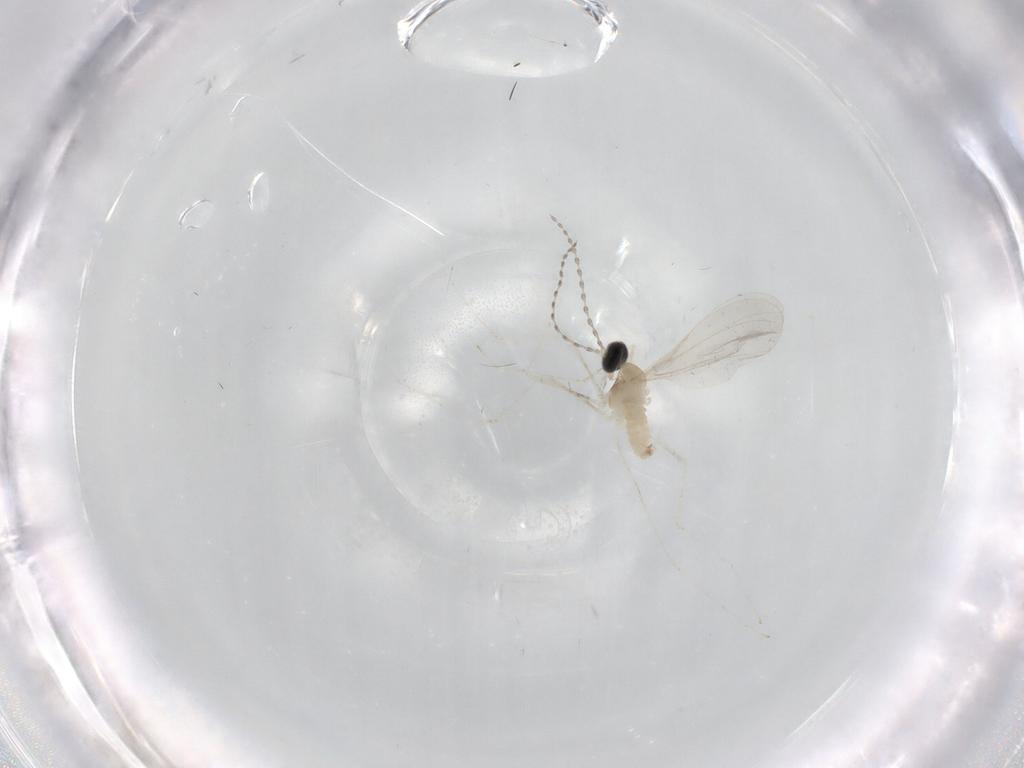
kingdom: Animalia
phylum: Arthropoda
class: Insecta
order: Diptera
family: Cecidomyiidae
